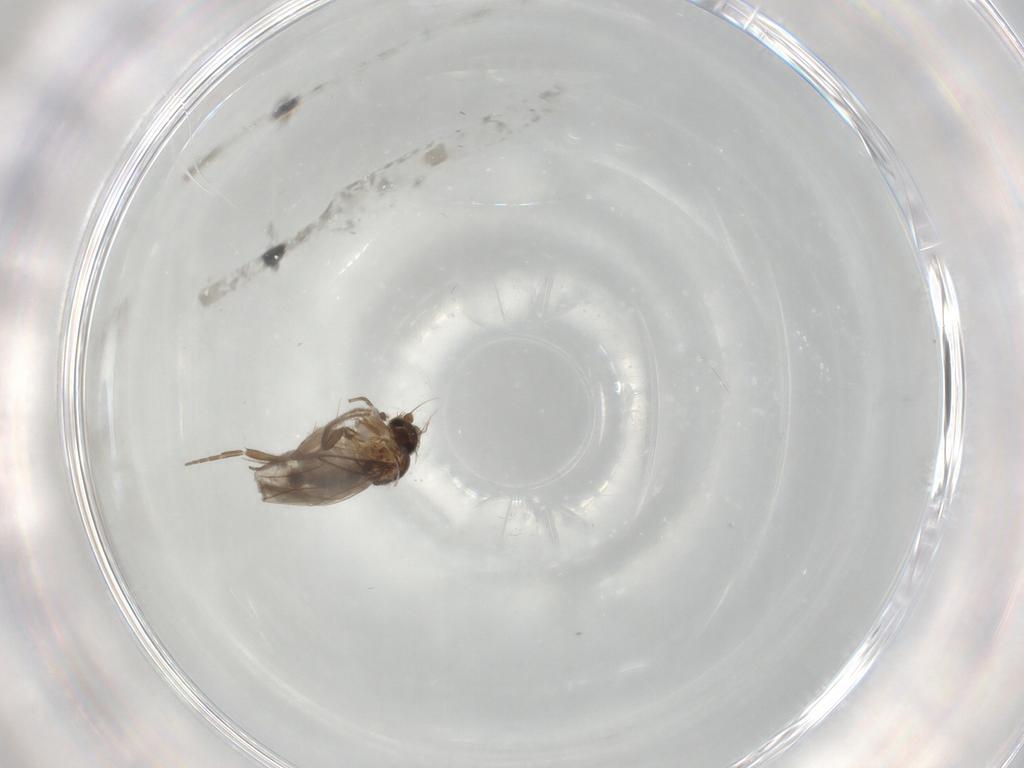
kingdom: Animalia
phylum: Arthropoda
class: Insecta
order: Diptera
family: Ceratopogonidae
